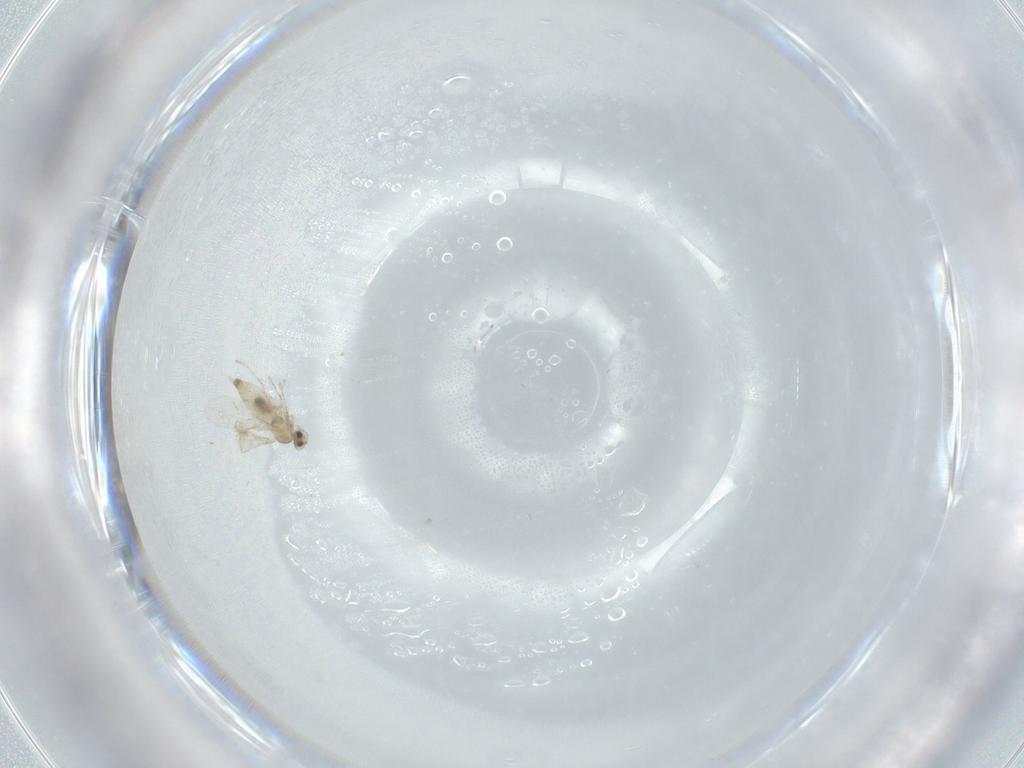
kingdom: Animalia
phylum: Arthropoda
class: Insecta
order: Diptera
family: Cecidomyiidae
